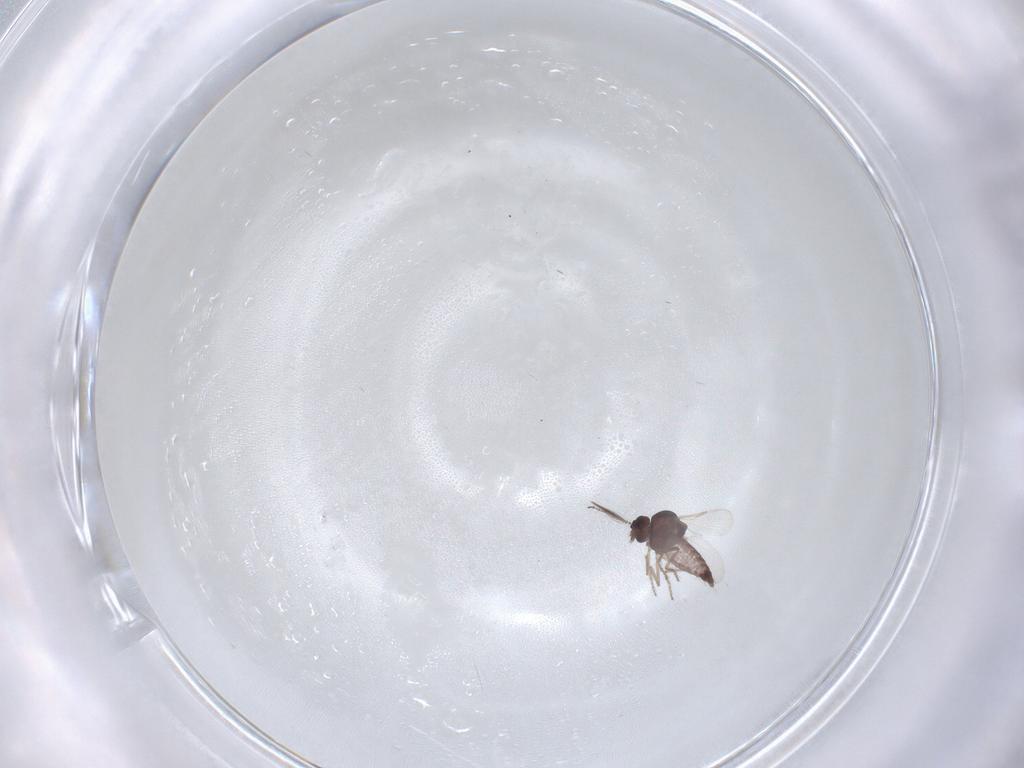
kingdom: Animalia
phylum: Arthropoda
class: Insecta
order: Diptera
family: Ceratopogonidae
